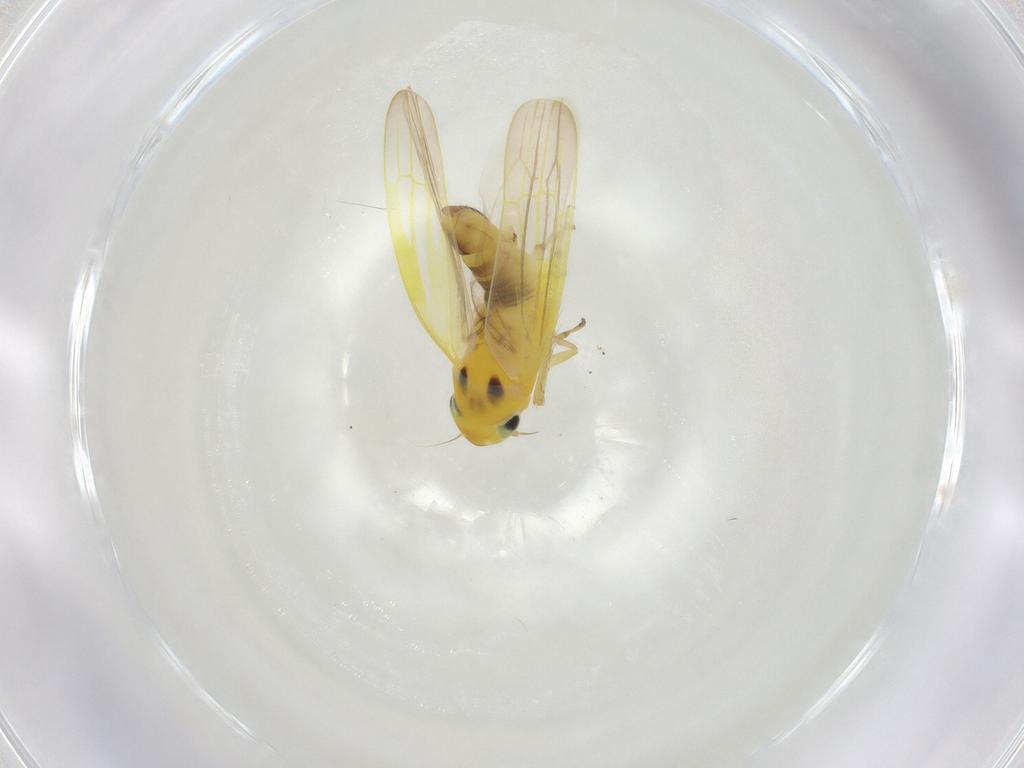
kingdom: Animalia
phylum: Arthropoda
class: Insecta
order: Hemiptera
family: Cicadellidae
